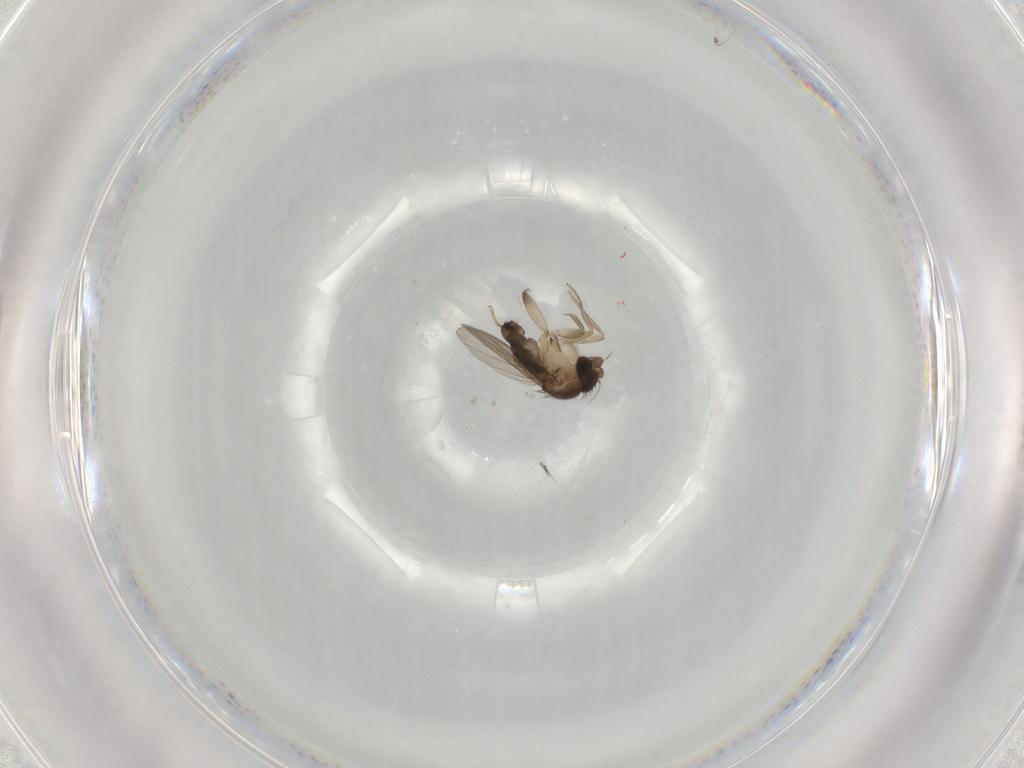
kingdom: Animalia
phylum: Arthropoda
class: Insecta
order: Diptera
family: Phoridae
